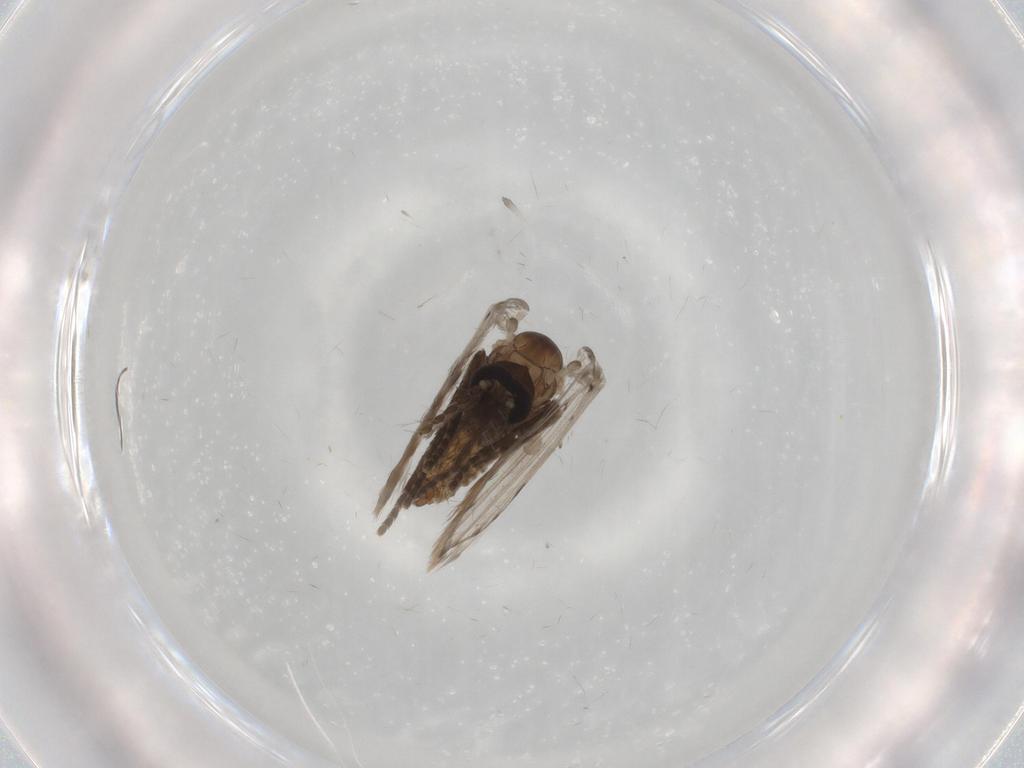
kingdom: Animalia
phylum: Arthropoda
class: Insecta
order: Diptera
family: Psychodidae
